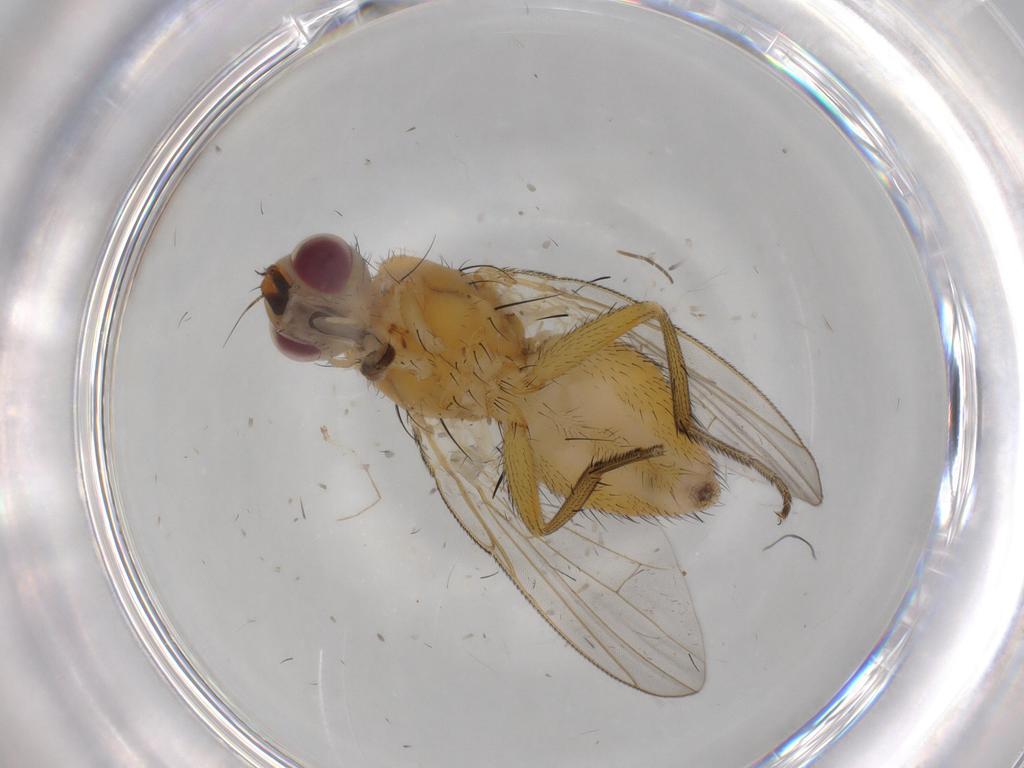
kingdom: Animalia
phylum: Arthropoda
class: Insecta
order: Diptera
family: Muscidae
